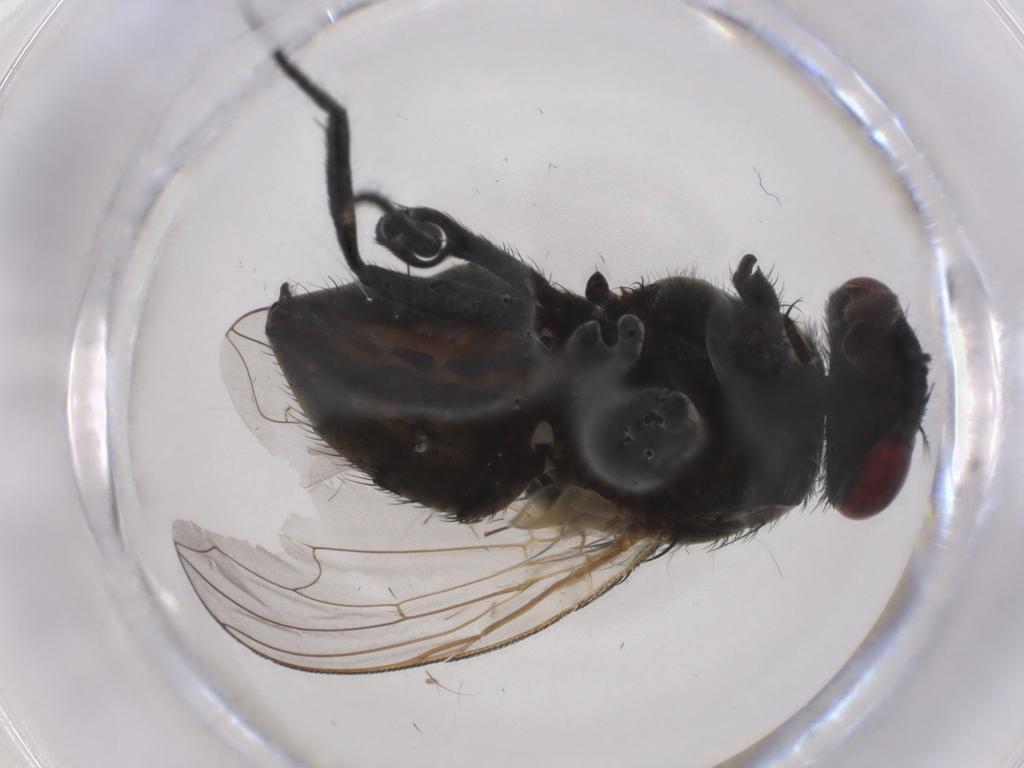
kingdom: Animalia
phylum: Arthropoda
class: Insecta
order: Diptera
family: Muscidae
